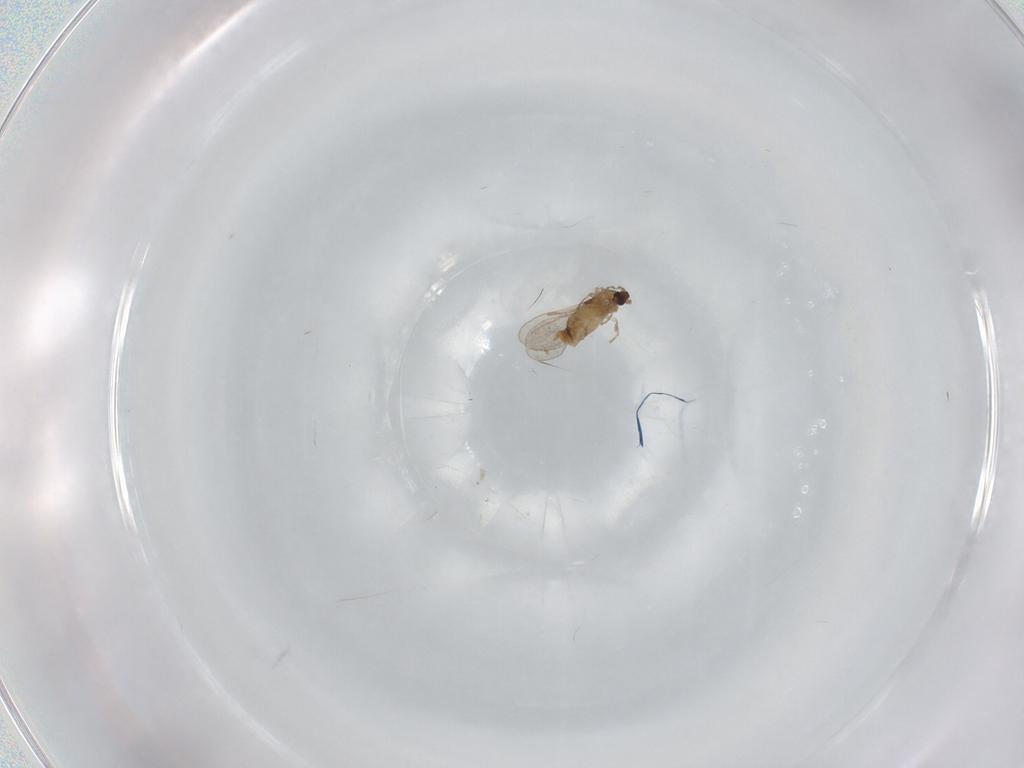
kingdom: Animalia
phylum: Arthropoda
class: Insecta
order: Diptera
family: Cecidomyiidae
